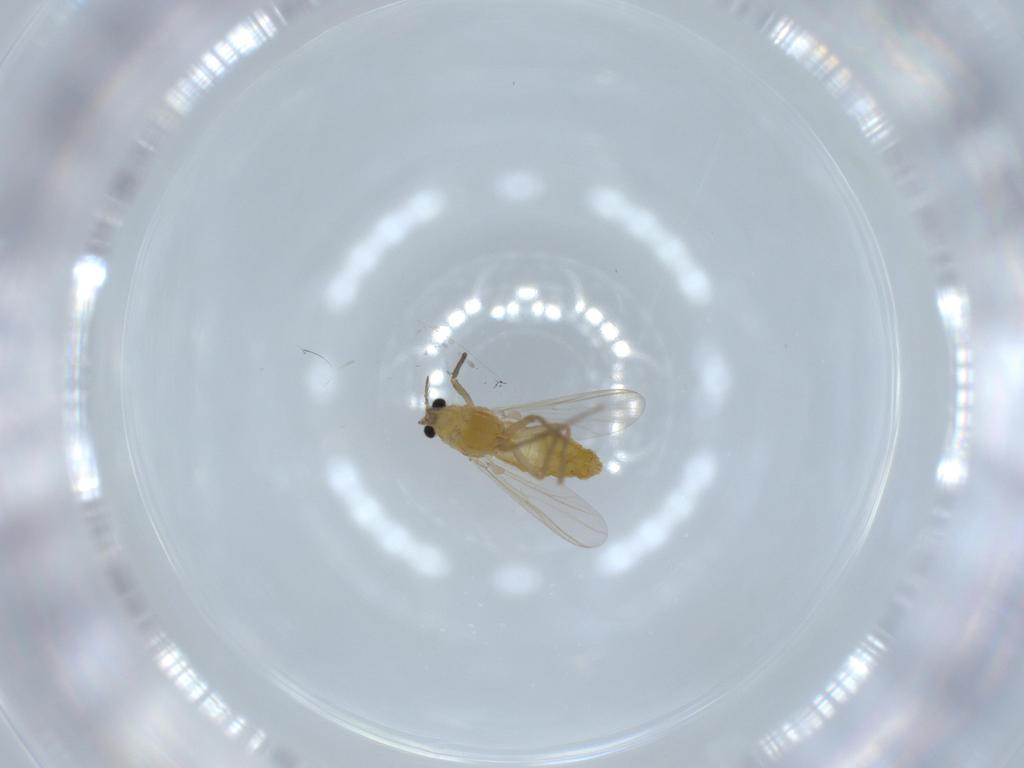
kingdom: Animalia
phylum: Arthropoda
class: Insecta
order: Diptera
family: Chironomidae
